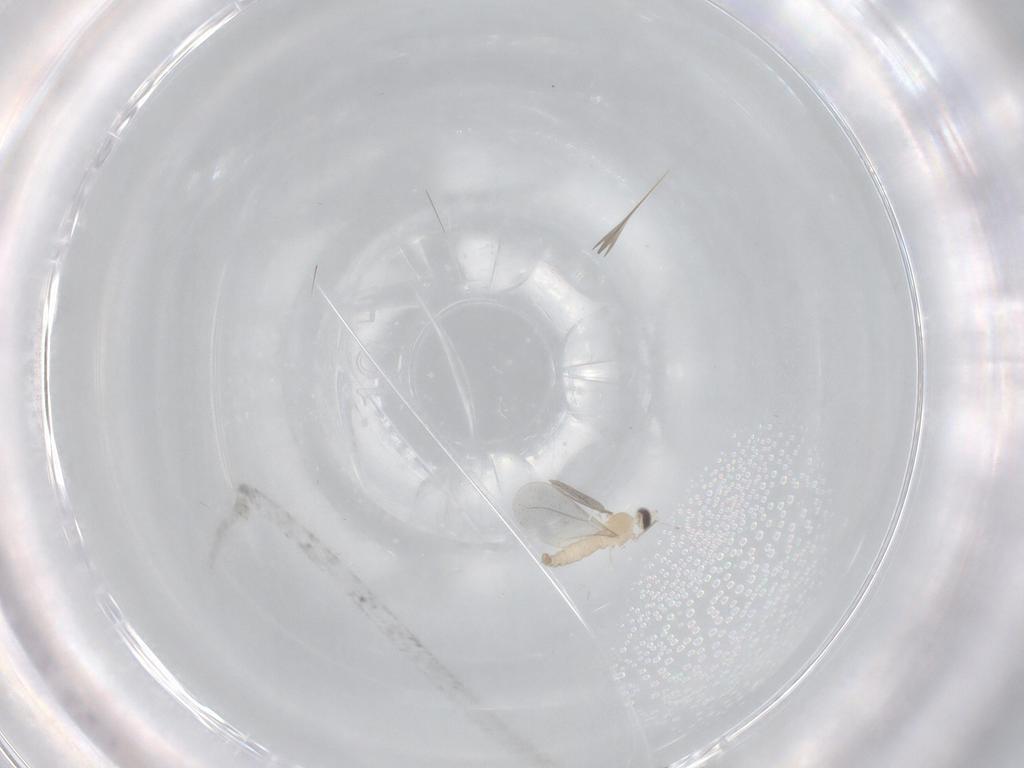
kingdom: Animalia
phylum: Arthropoda
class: Insecta
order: Diptera
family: Cecidomyiidae
